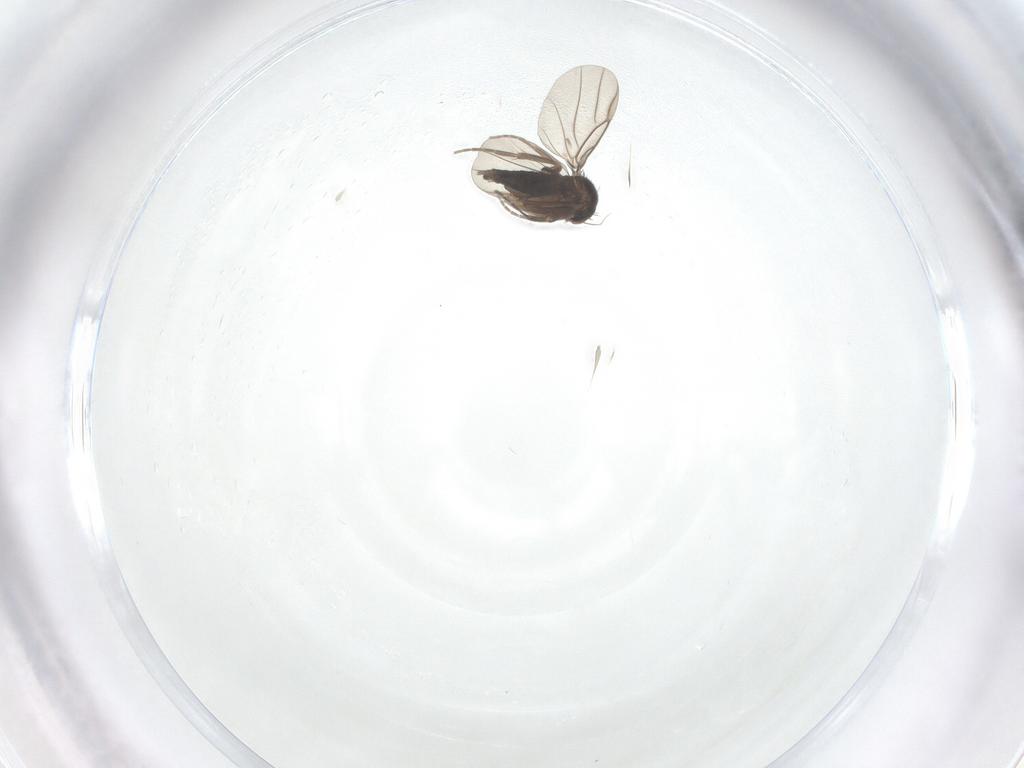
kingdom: Animalia
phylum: Arthropoda
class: Insecta
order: Diptera
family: Cecidomyiidae
